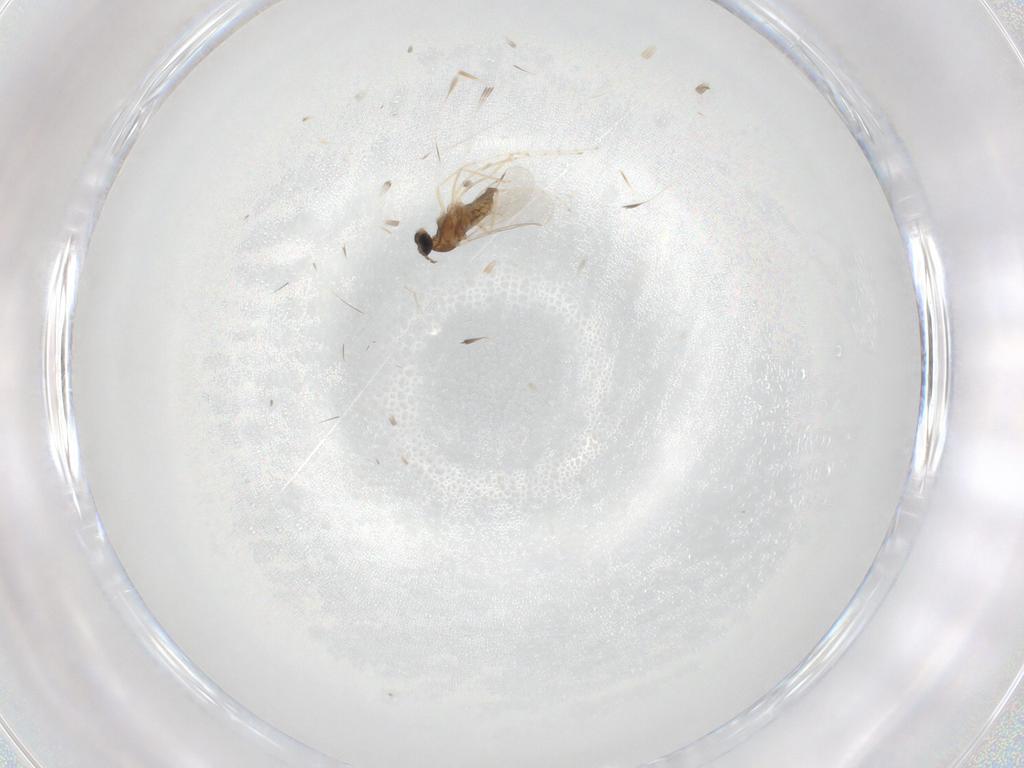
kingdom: Animalia
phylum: Arthropoda
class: Insecta
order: Diptera
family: Cecidomyiidae
